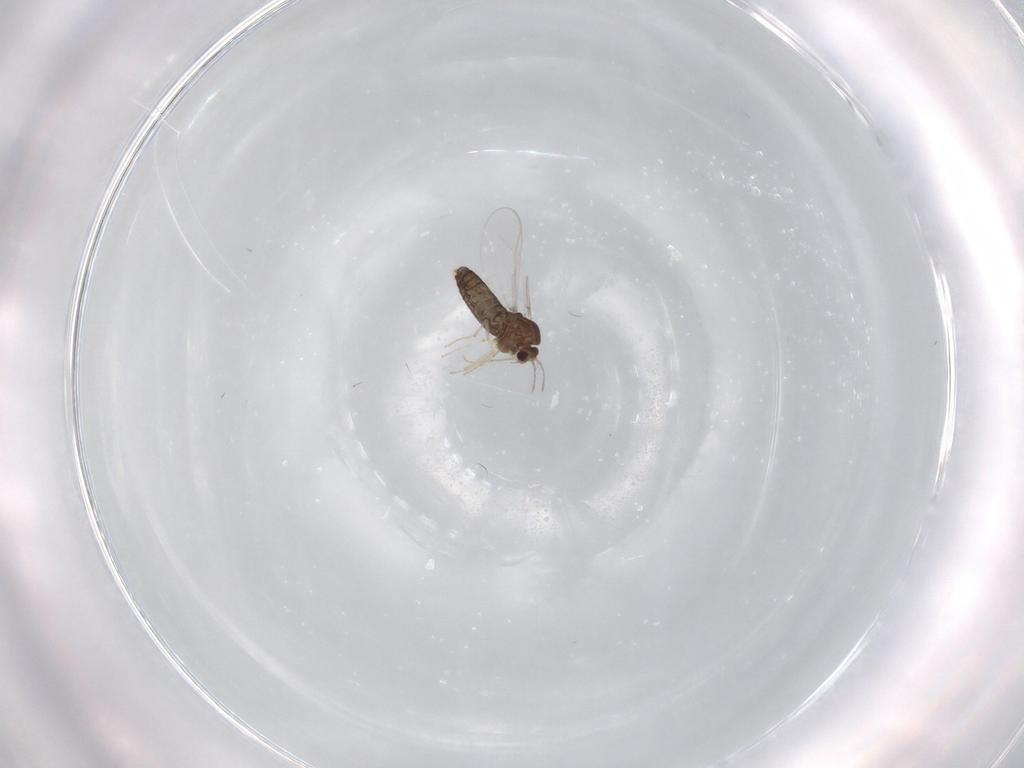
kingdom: Animalia
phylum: Arthropoda
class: Insecta
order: Diptera
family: Chironomidae
